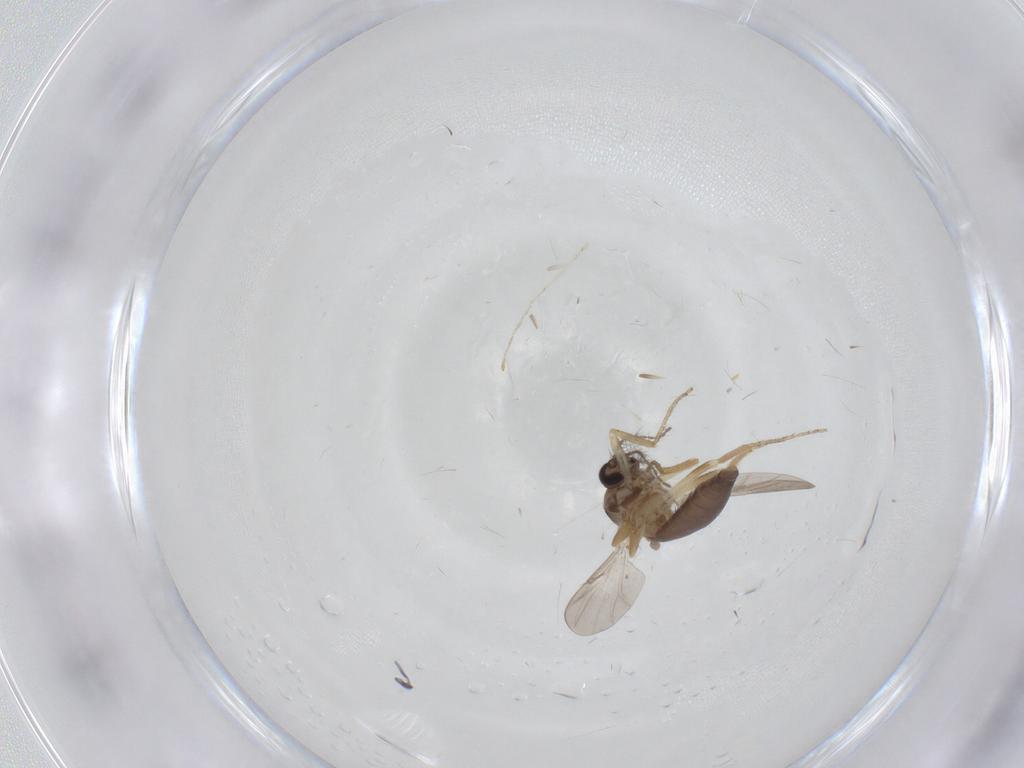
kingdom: Animalia
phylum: Arthropoda
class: Insecta
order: Diptera
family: Ceratopogonidae
